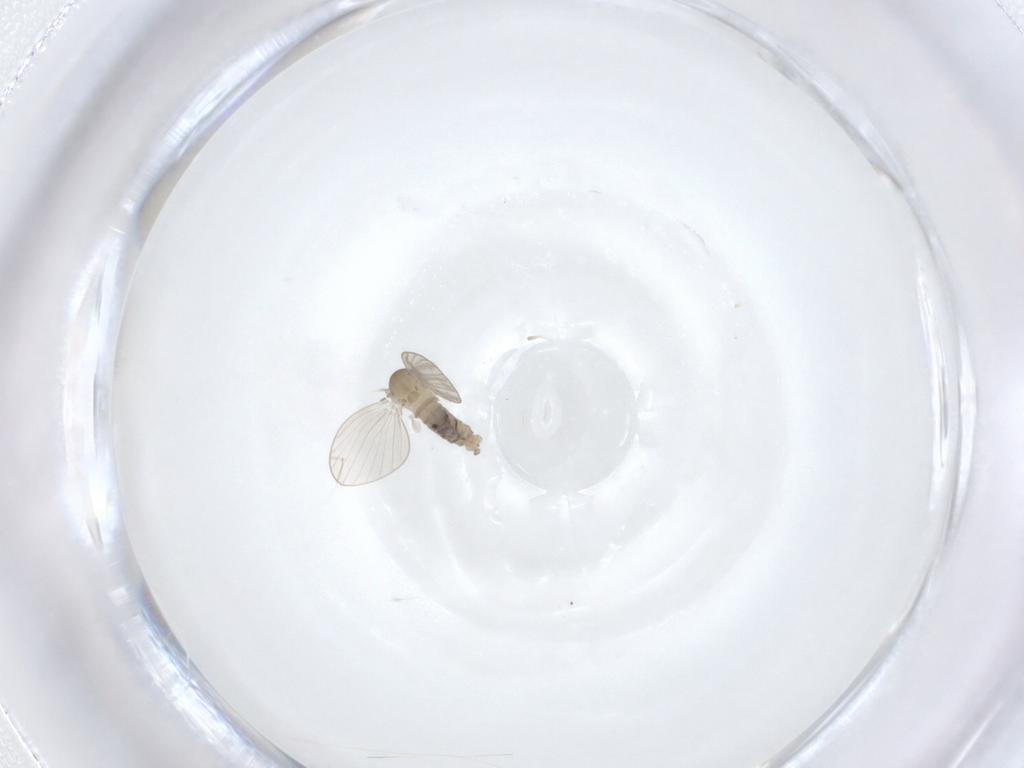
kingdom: Animalia
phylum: Arthropoda
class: Insecta
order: Diptera
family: Psychodidae
